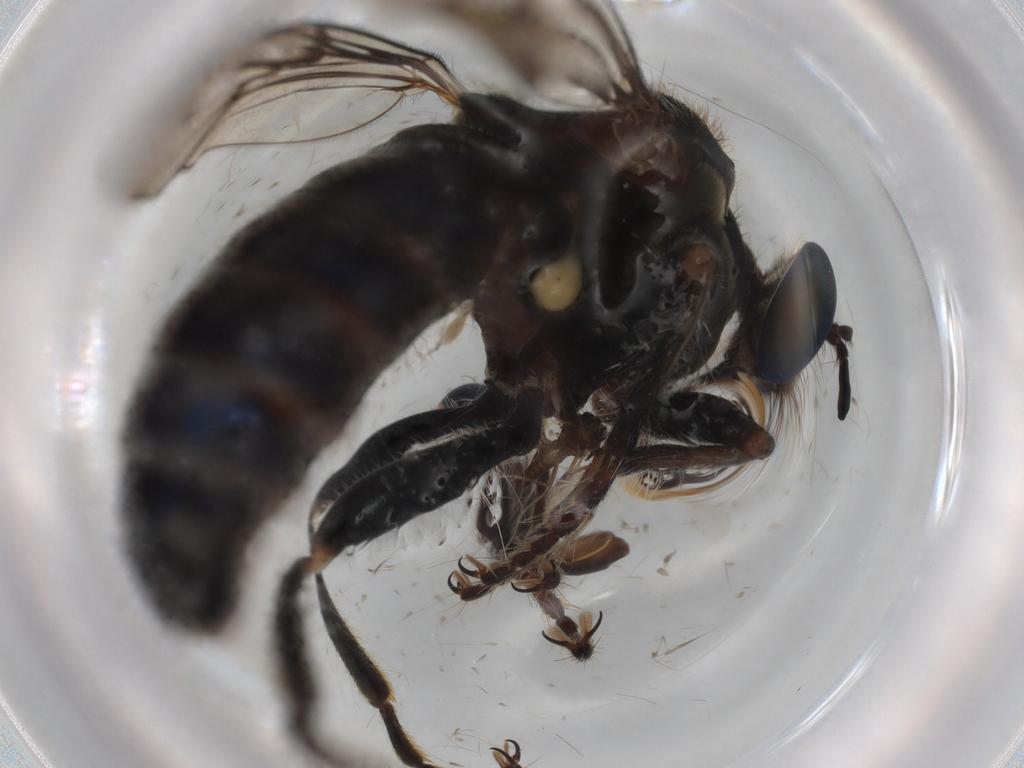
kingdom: Animalia
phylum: Arthropoda
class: Insecta
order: Diptera
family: Ceratopogonidae
